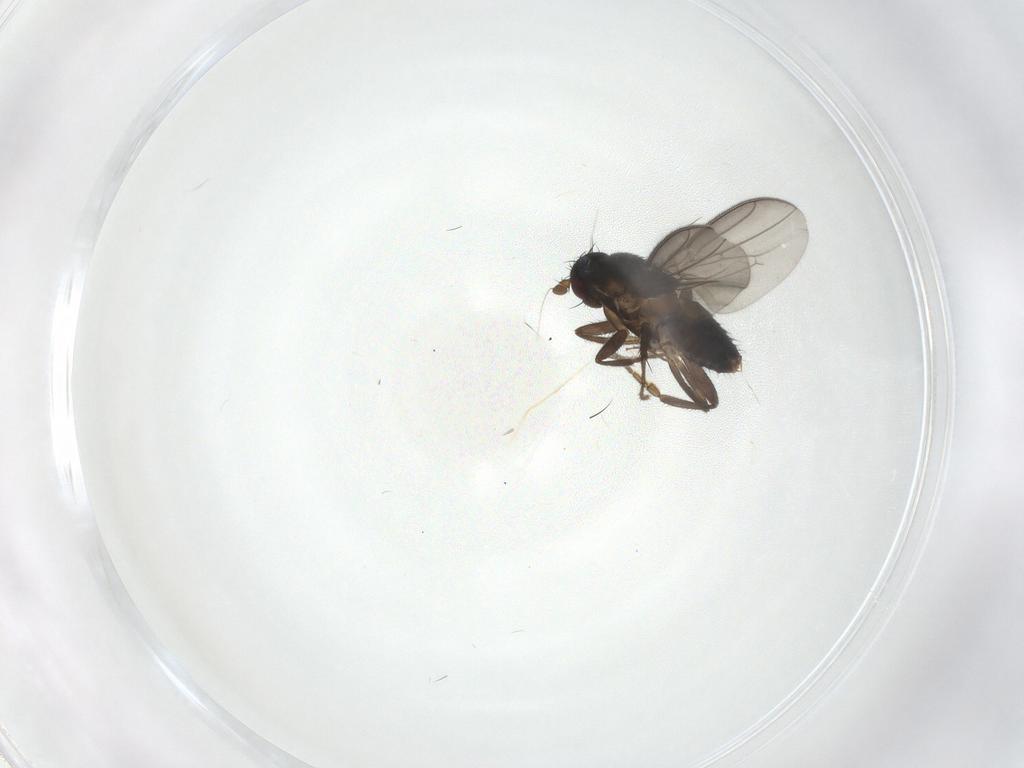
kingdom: Animalia
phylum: Arthropoda
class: Insecta
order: Diptera
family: Sphaeroceridae
